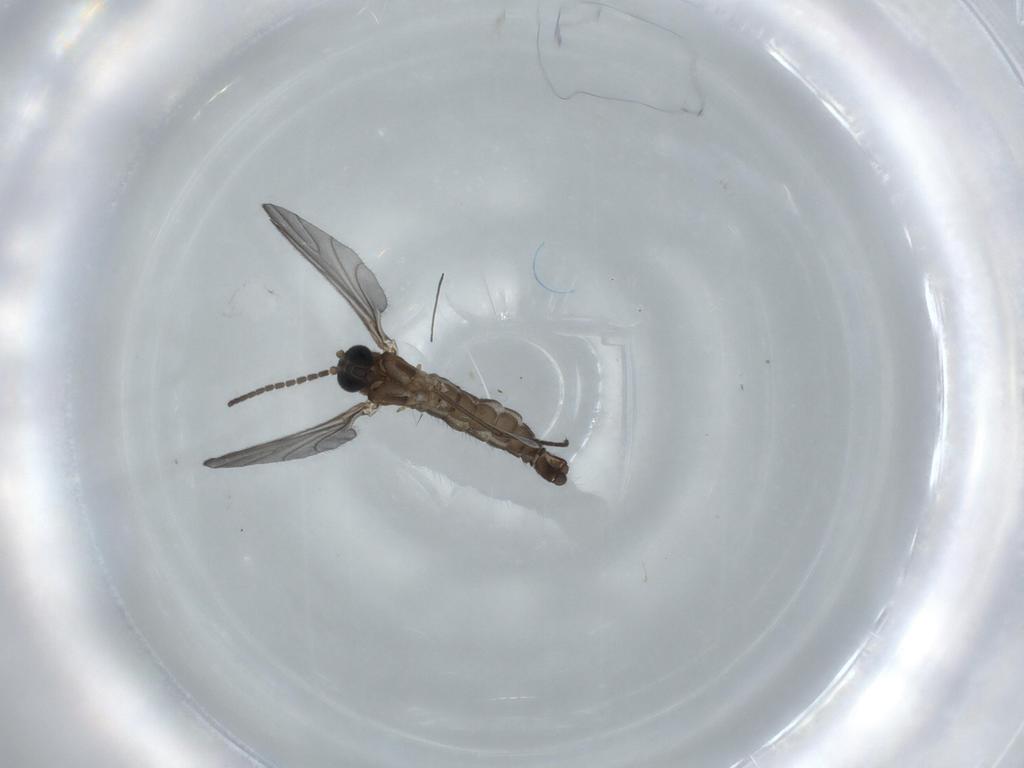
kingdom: Animalia
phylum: Arthropoda
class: Insecta
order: Diptera
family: Sciaridae
